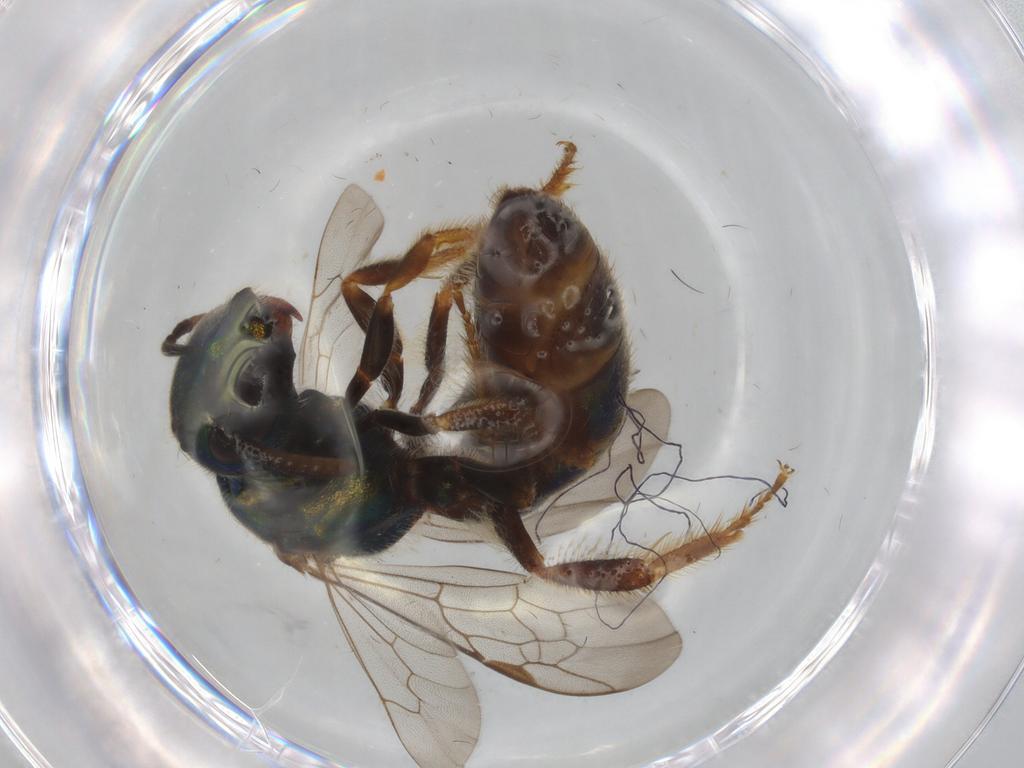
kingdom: Animalia
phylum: Arthropoda
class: Insecta
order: Hymenoptera
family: Halictidae
